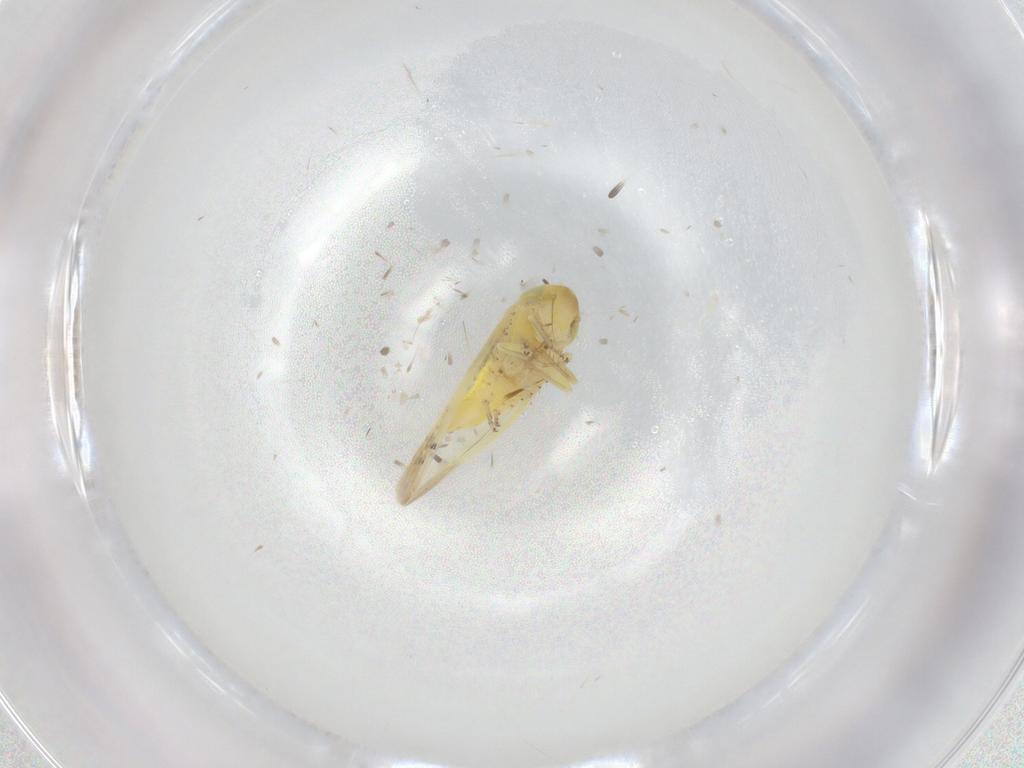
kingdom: Animalia
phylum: Arthropoda
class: Insecta
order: Hemiptera
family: Cicadellidae
